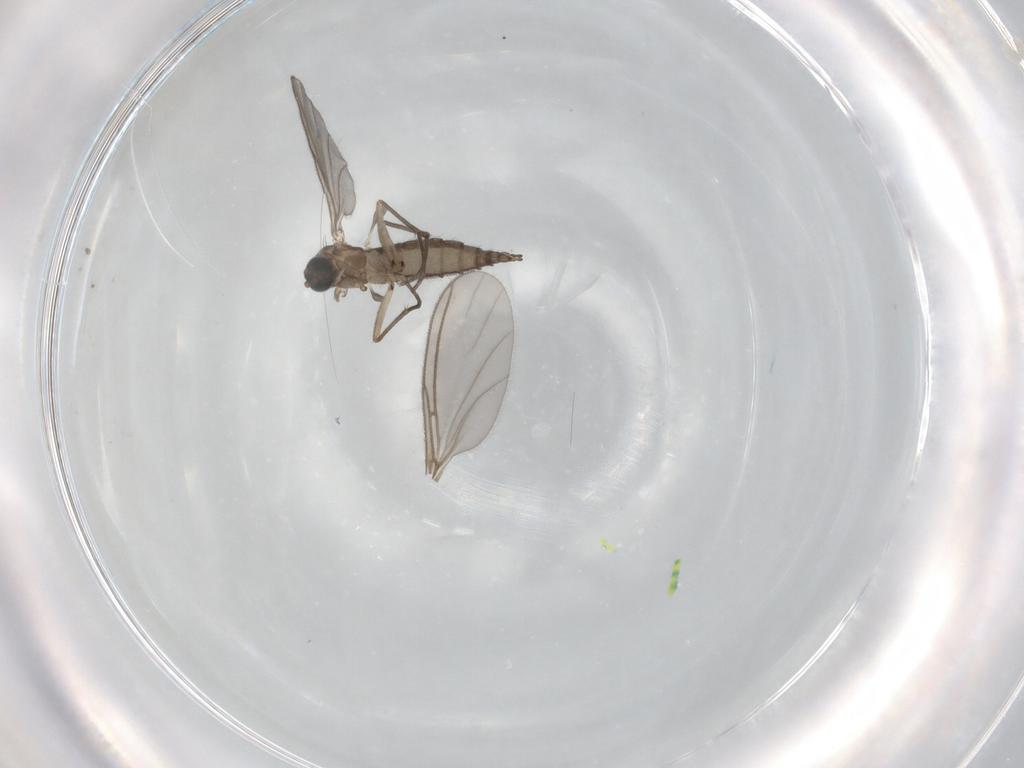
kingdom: Animalia
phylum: Arthropoda
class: Insecta
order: Diptera
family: Sciaridae
